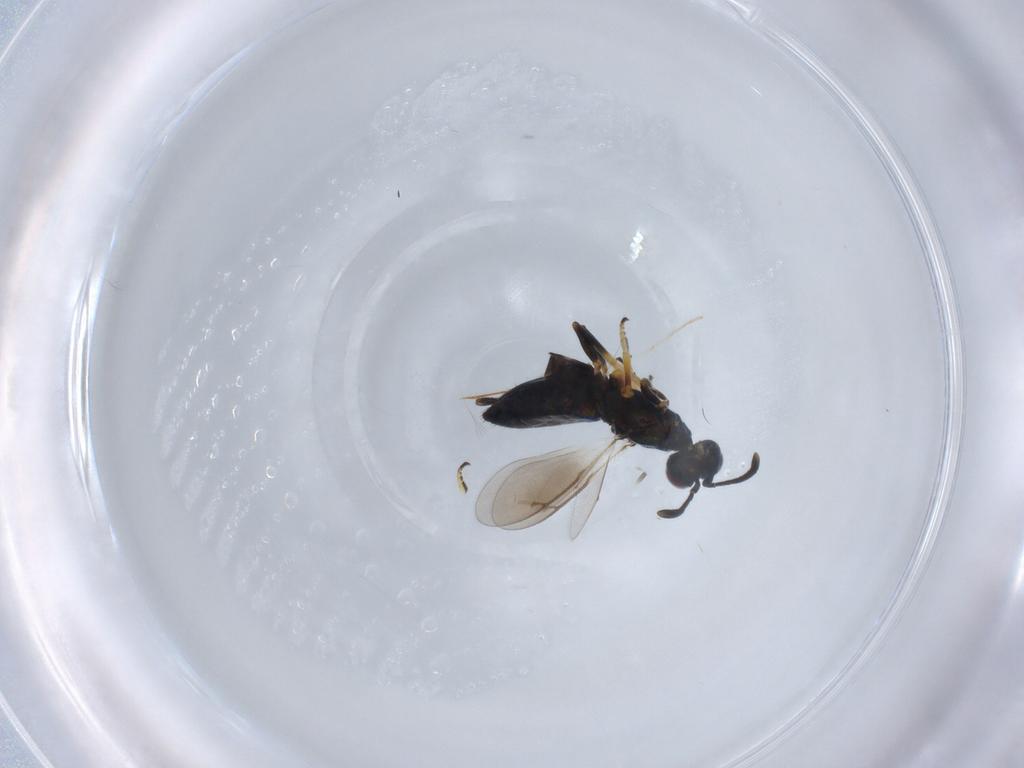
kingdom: Animalia
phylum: Arthropoda
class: Insecta
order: Hymenoptera
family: Eupelmidae
